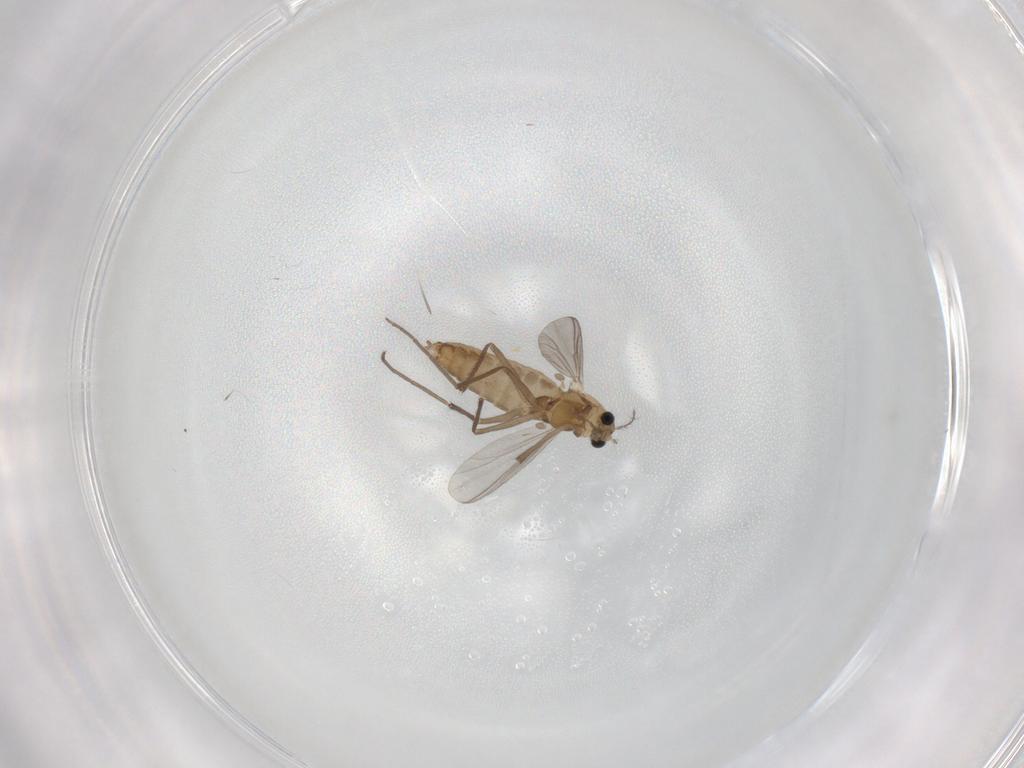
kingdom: Animalia
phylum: Arthropoda
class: Insecta
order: Diptera
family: Chironomidae
